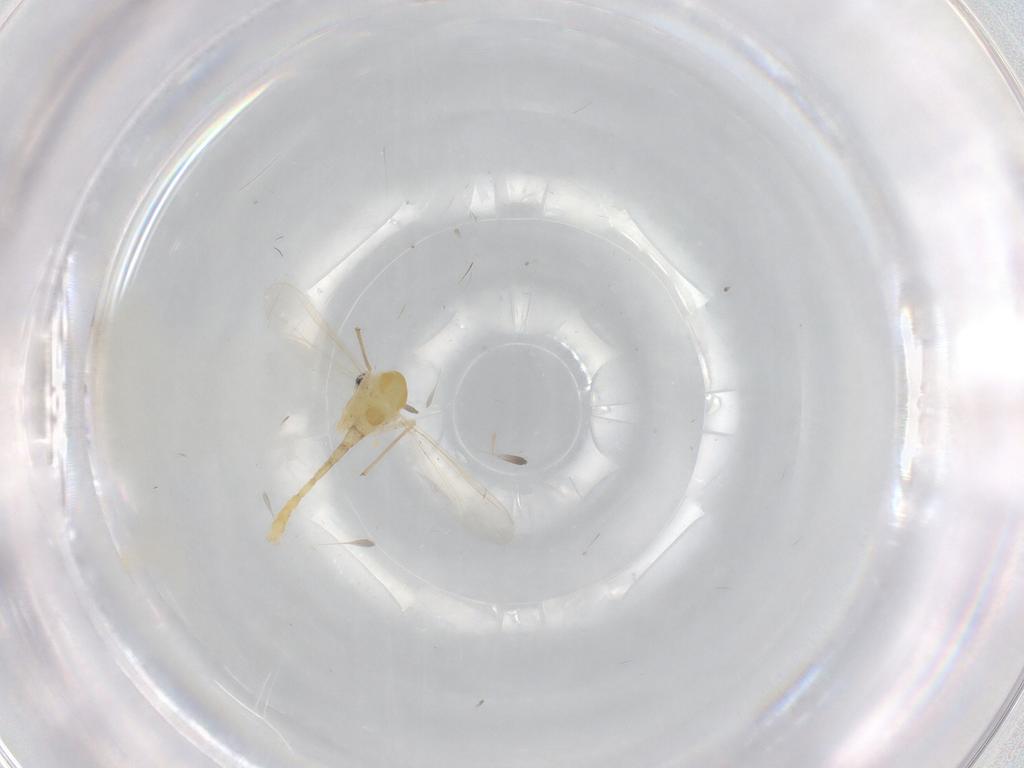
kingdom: Animalia
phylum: Arthropoda
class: Insecta
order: Diptera
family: Chironomidae
